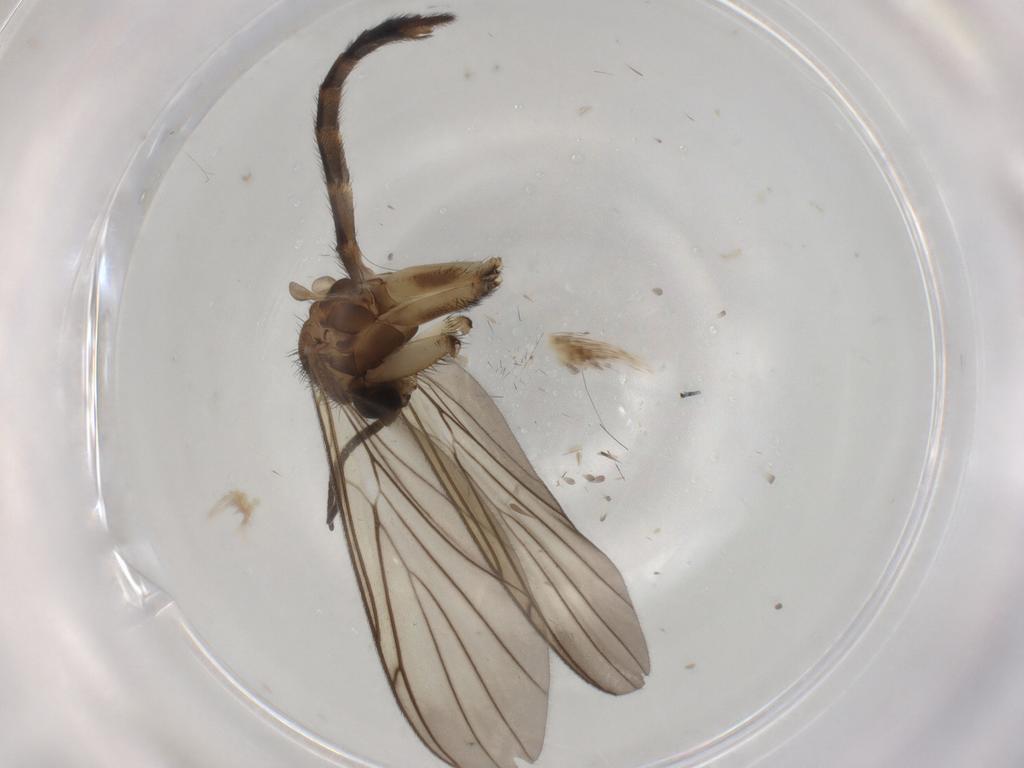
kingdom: Animalia
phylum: Arthropoda
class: Insecta
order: Diptera
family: Keroplatidae
